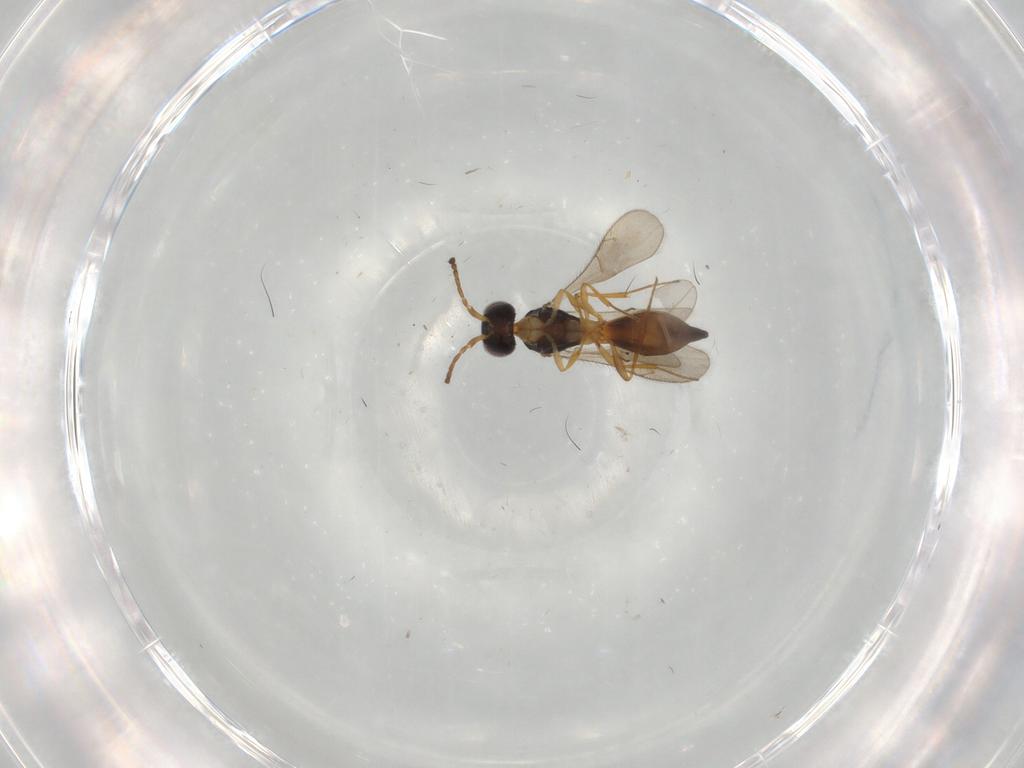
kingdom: Animalia
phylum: Arthropoda
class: Insecta
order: Hymenoptera
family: Scelionidae
